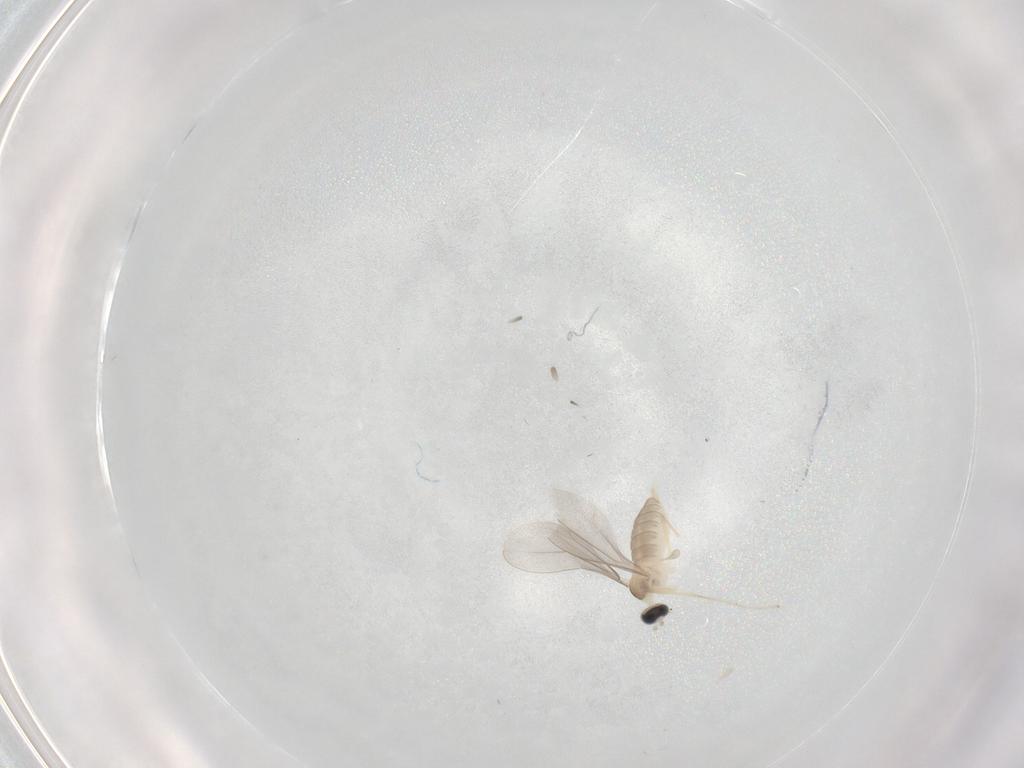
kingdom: Animalia
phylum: Arthropoda
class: Insecta
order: Diptera
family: Cecidomyiidae
